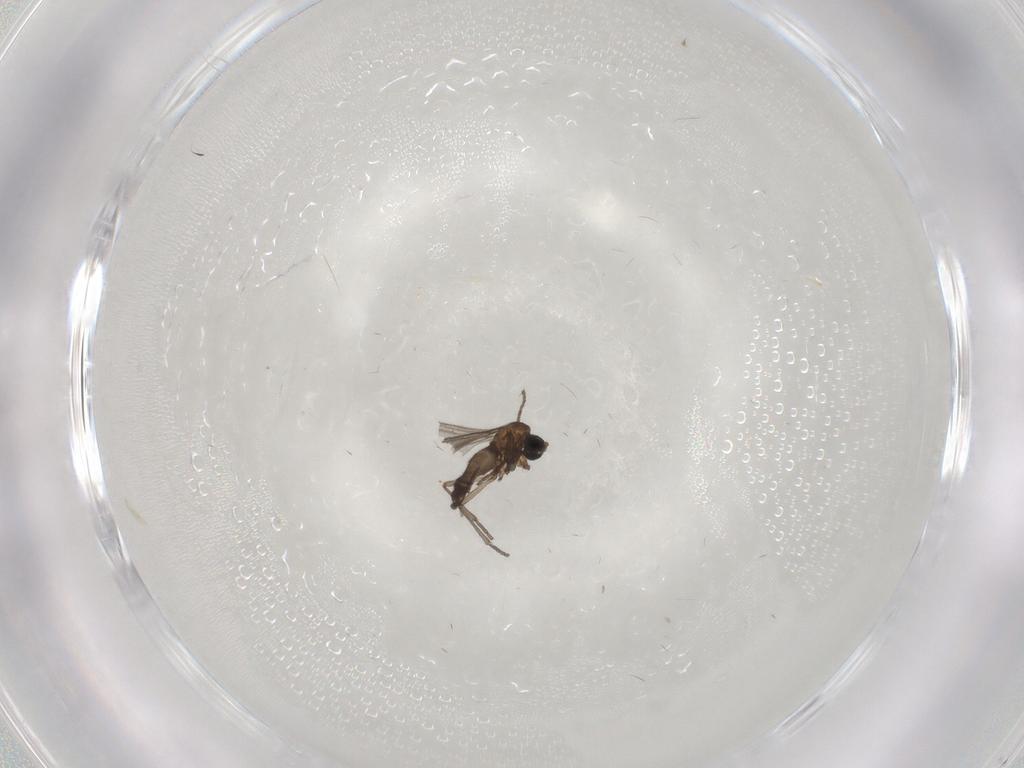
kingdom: Animalia
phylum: Arthropoda
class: Insecta
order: Diptera
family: Sciaridae
